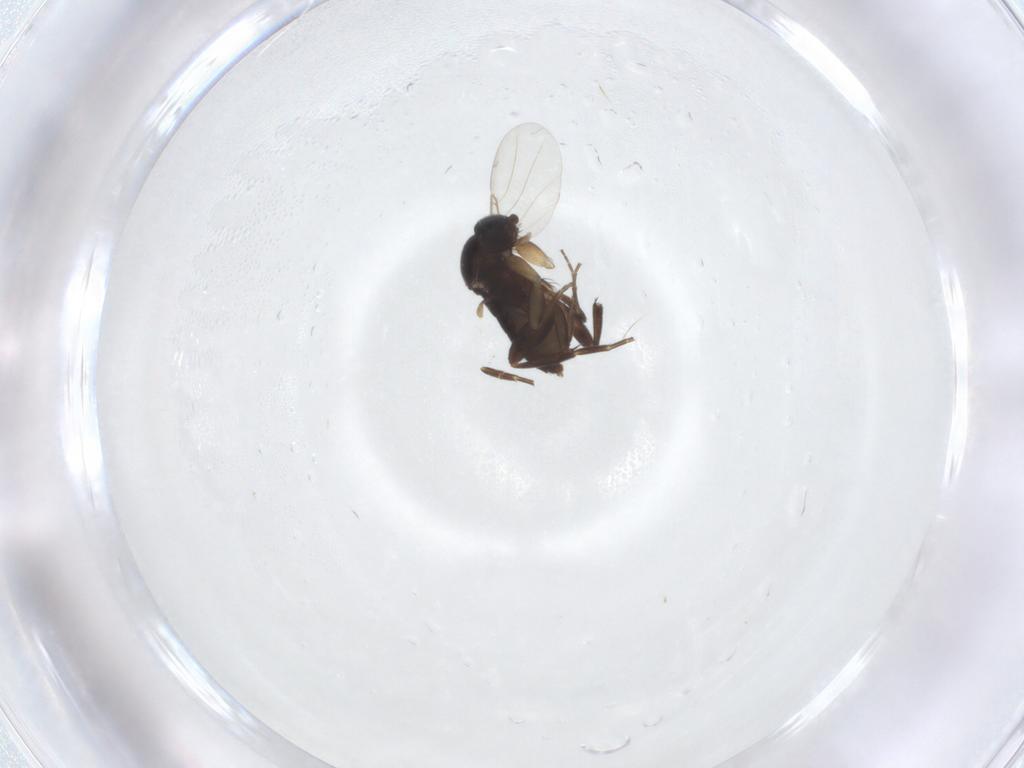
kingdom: Animalia
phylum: Arthropoda
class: Insecta
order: Diptera
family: Phoridae
